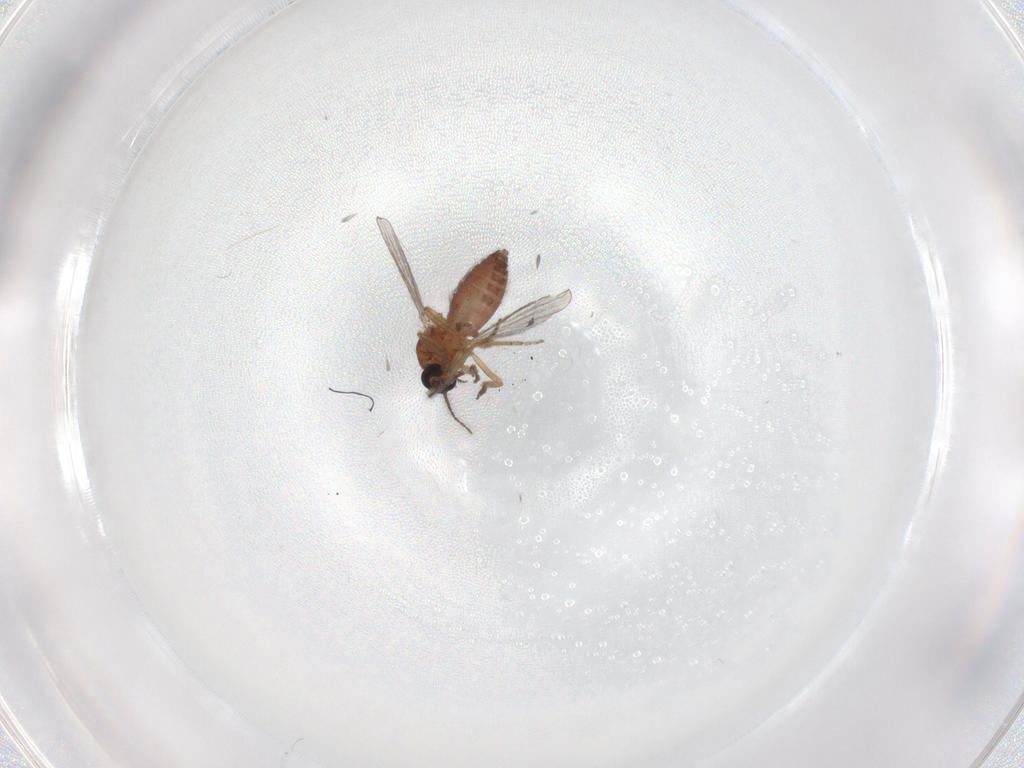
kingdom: Animalia
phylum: Arthropoda
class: Insecta
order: Diptera
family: Ceratopogonidae
